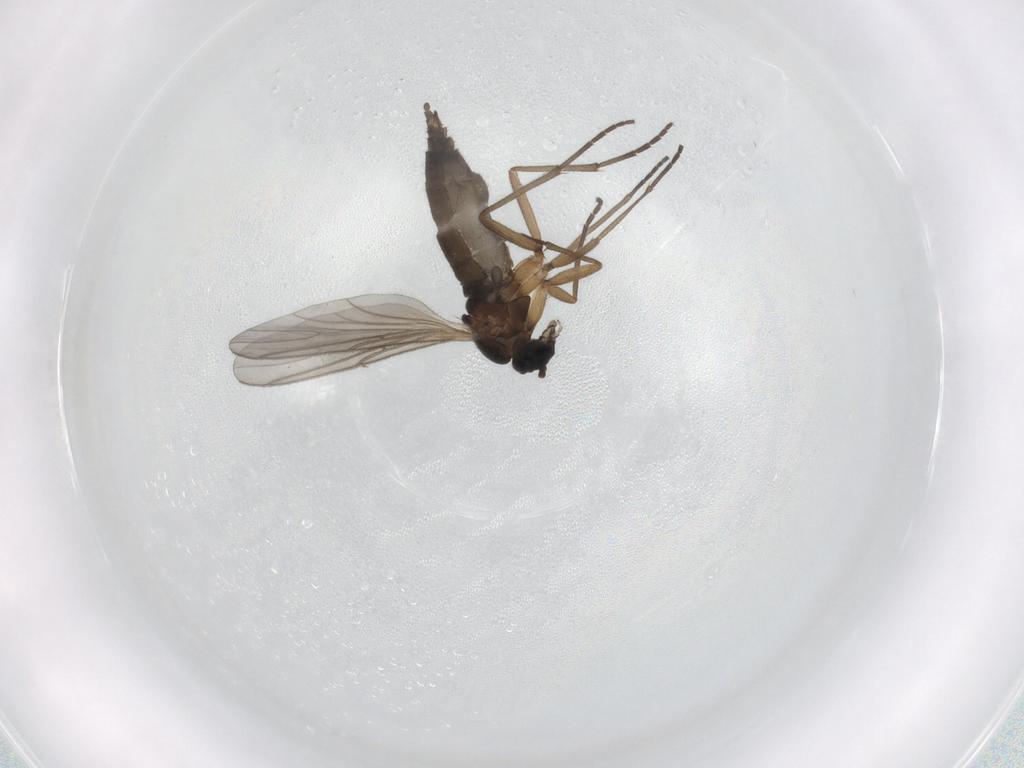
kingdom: Animalia
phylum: Arthropoda
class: Insecta
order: Diptera
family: Sciaridae
